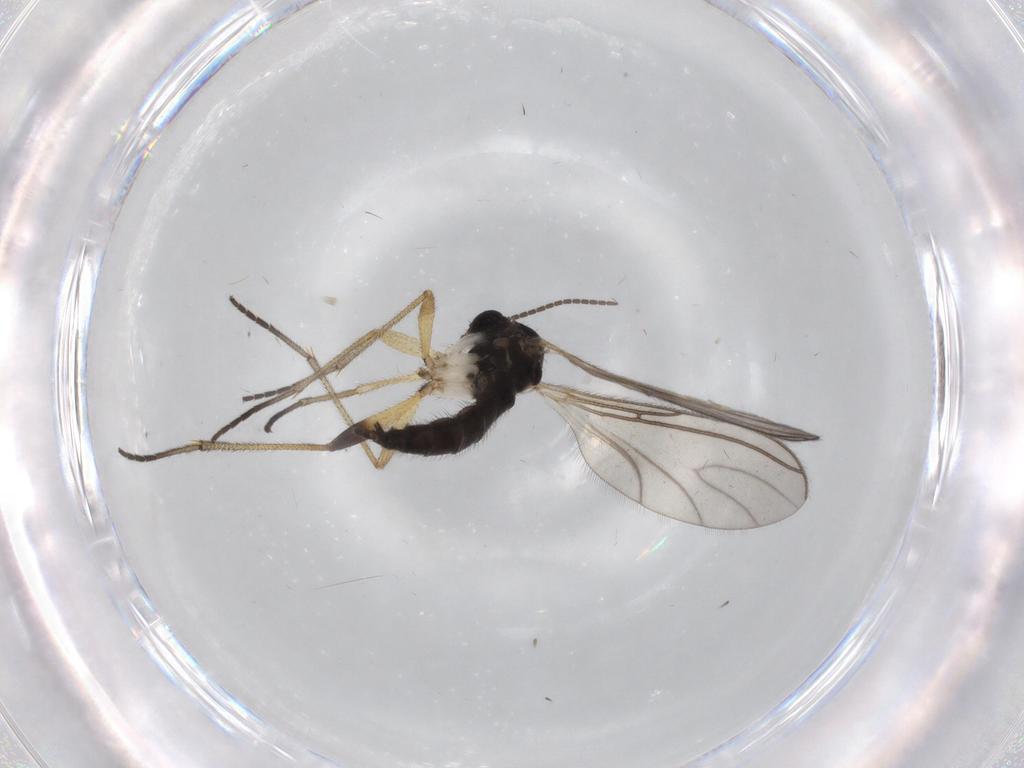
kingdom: Animalia
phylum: Arthropoda
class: Insecta
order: Diptera
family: Sciaridae
